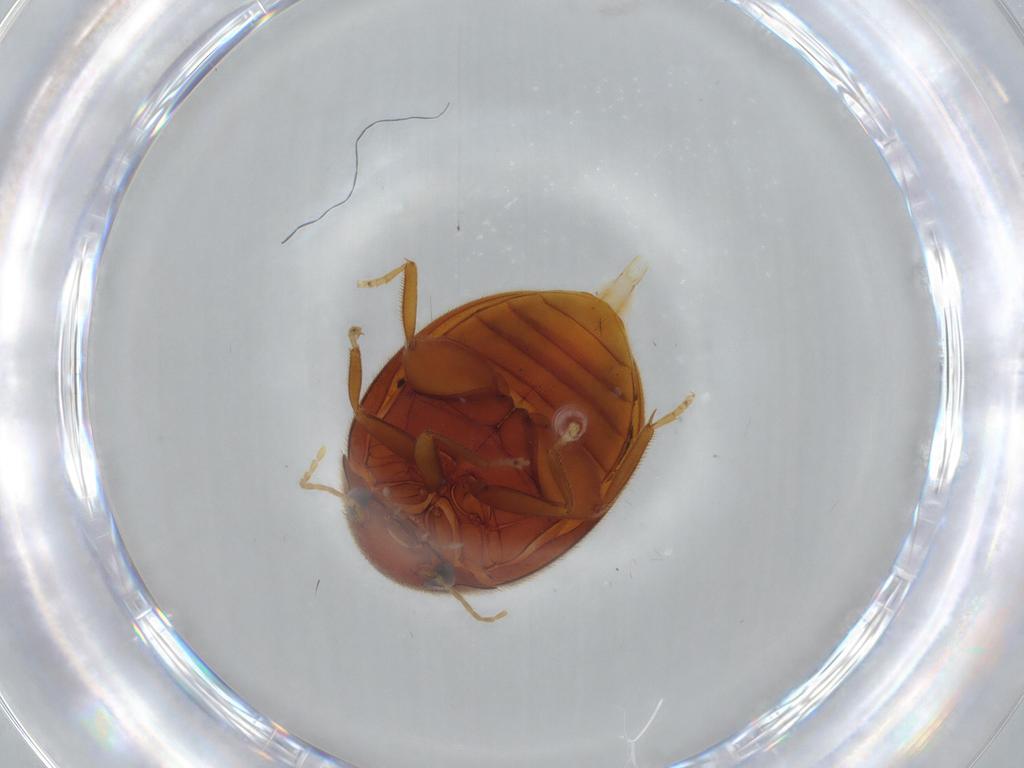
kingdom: Animalia
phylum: Arthropoda
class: Insecta
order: Coleoptera
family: Scirtidae
